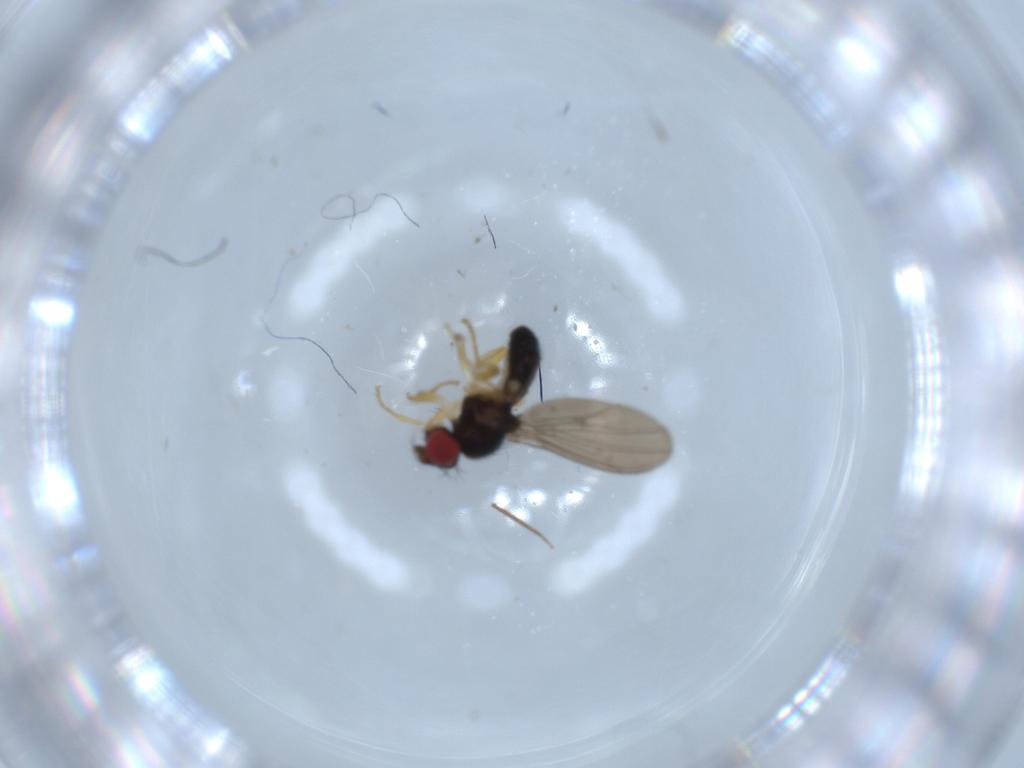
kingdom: Animalia
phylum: Arthropoda
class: Insecta
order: Diptera
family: Drosophilidae
